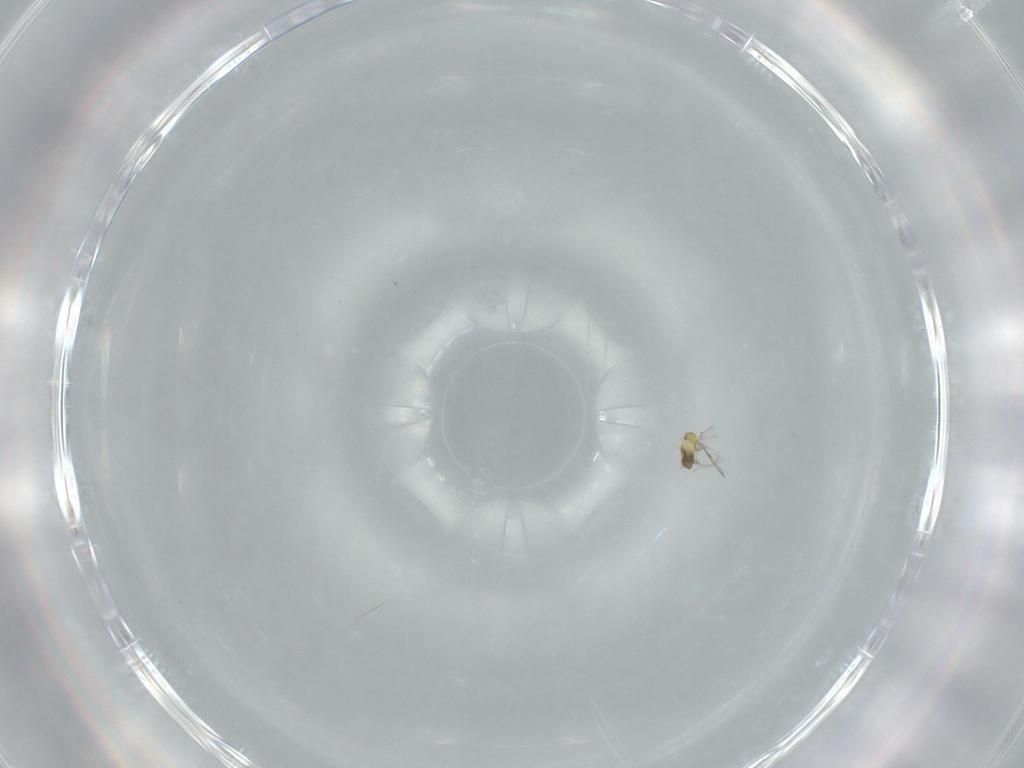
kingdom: Animalia
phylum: Arthropoda
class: Insecta
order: Hymenoptera
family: Trichogrammatidae
